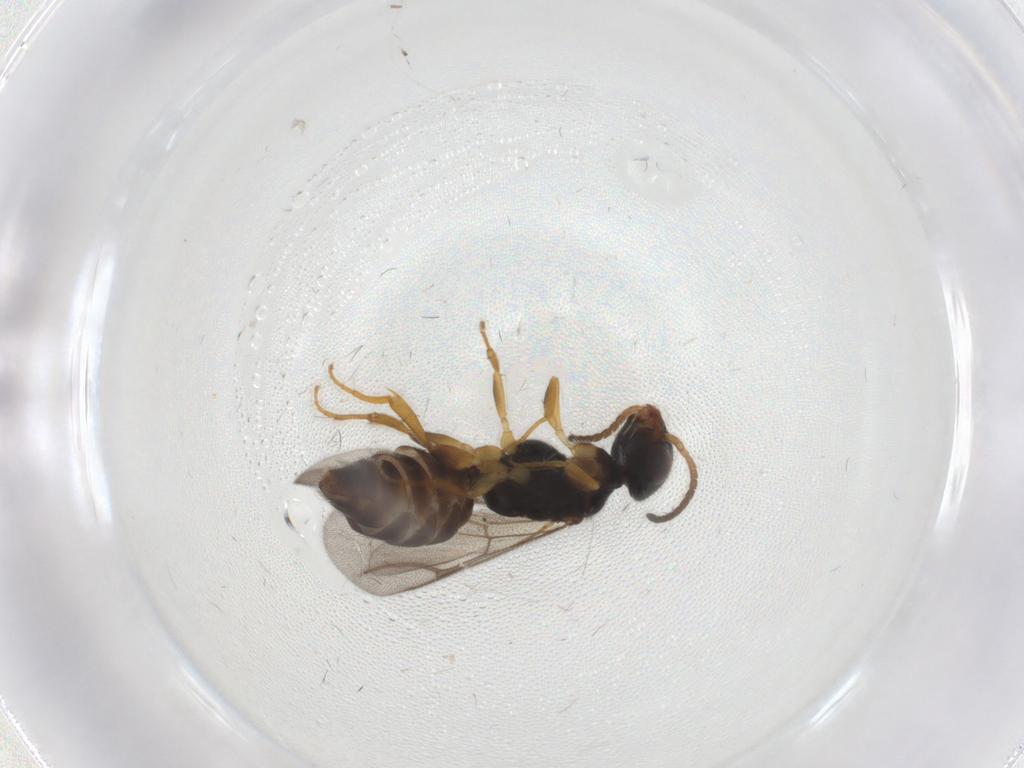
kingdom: Animalia
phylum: Arthropoda
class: Insecta
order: Hymenoptera
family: Bethylidae
